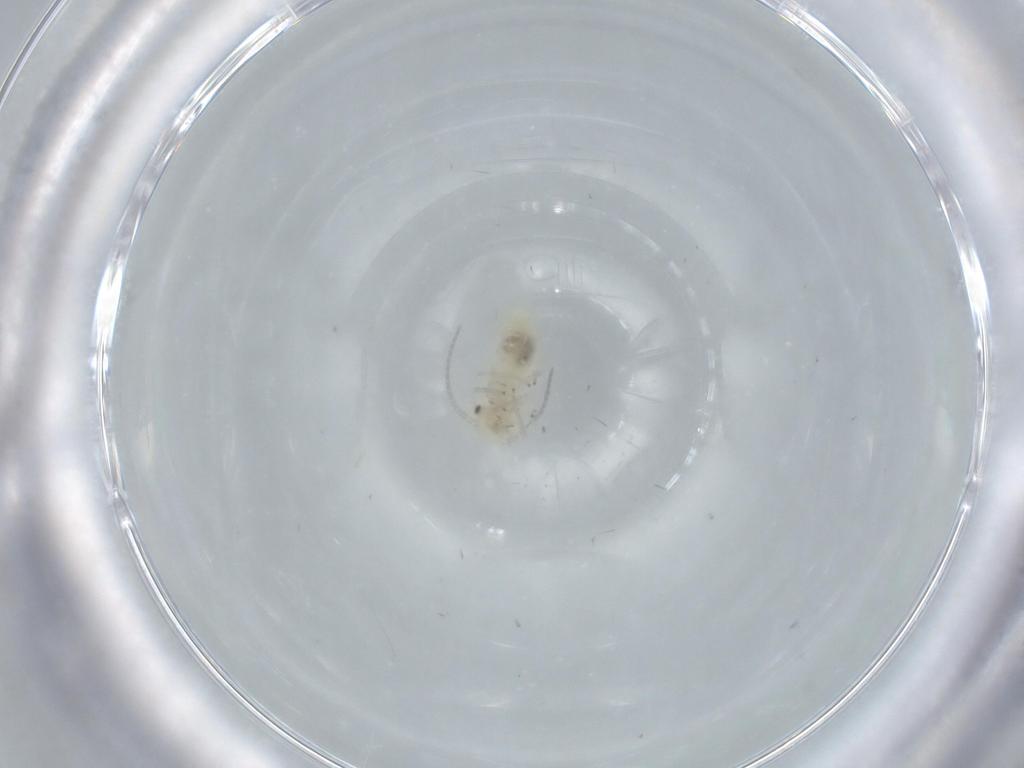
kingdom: Animalia
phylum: Arthropoda
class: Insecta
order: Psocodea
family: Caeciliusidae
